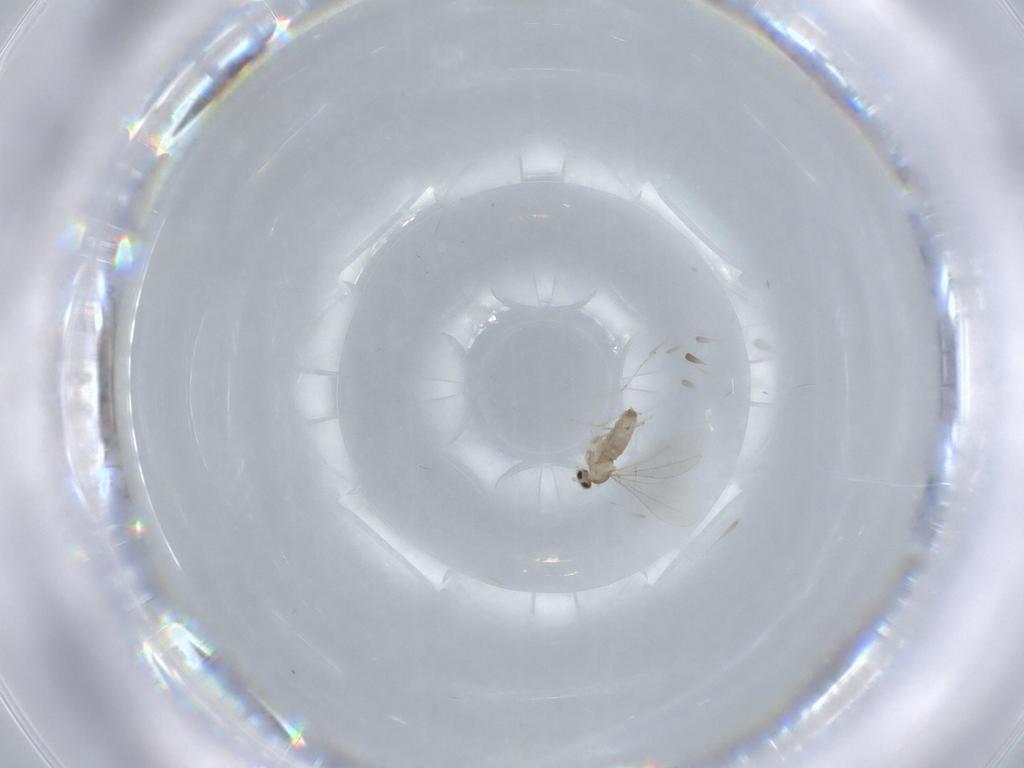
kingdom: Animalia
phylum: Arthropoda
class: Insecta
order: Diptera
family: Cecidomyiidae
